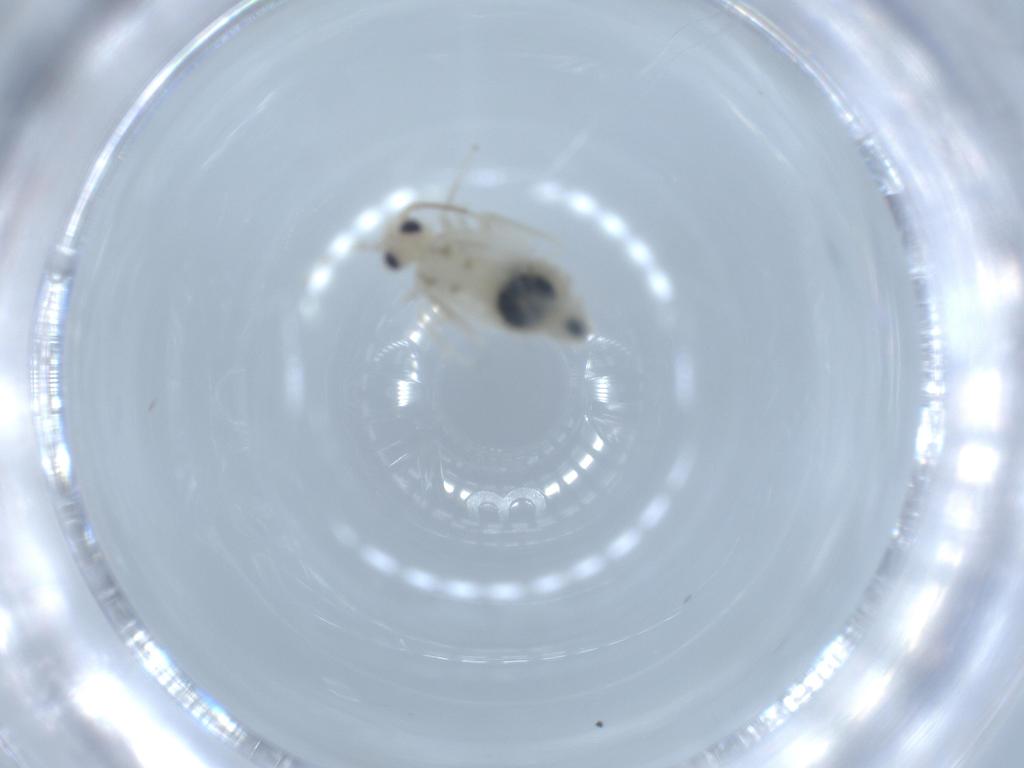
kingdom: Animalia
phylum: Arthropoda
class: Insecta
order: Psocodea
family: Caeciliusidae
